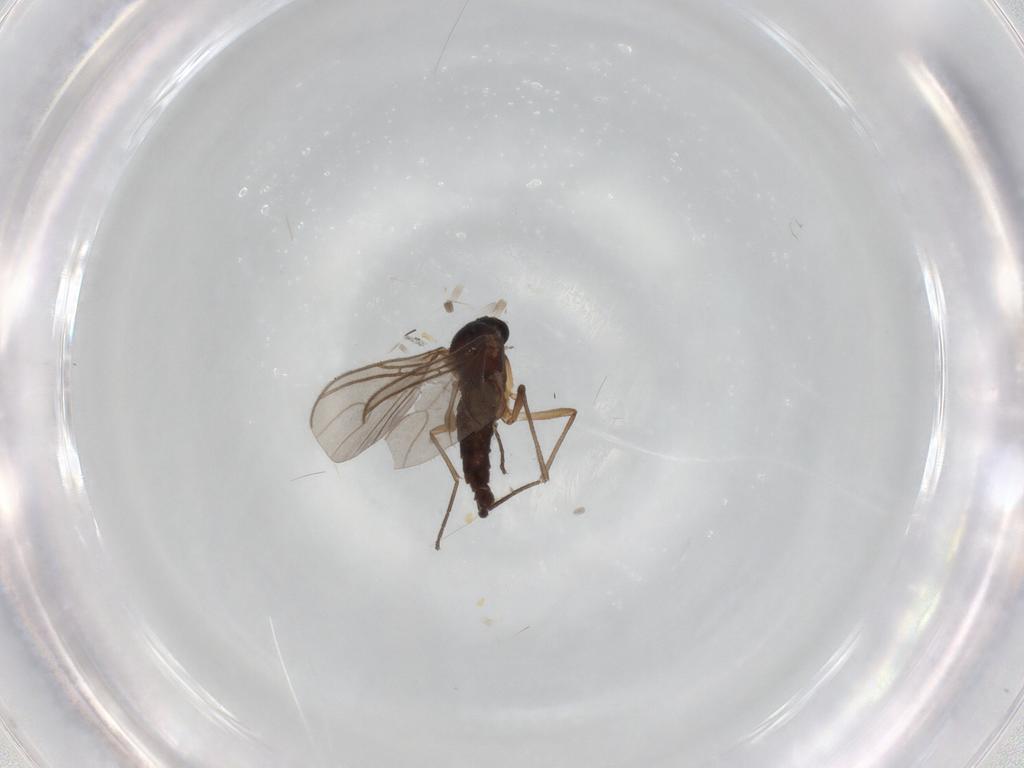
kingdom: Animalia
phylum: Arthropoda
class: Insecta
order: Diptera
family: Sciaridae
